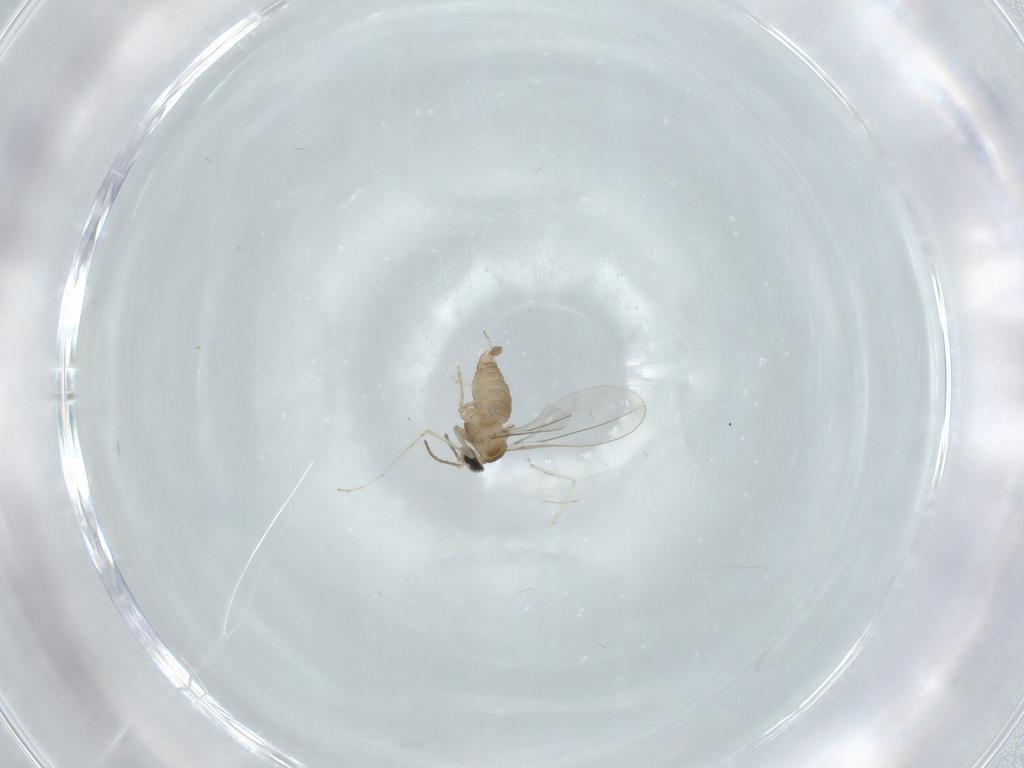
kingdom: Animalia
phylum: Arthropoda
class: Insecta
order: Diptera
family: Cecidomyiidae
